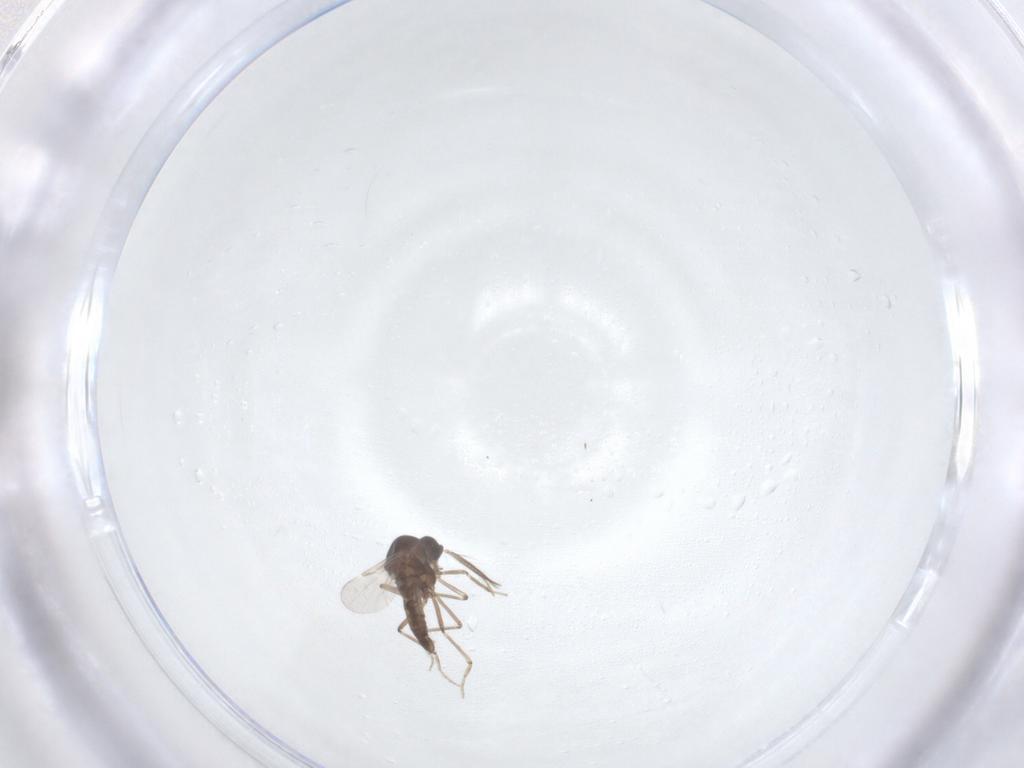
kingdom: Animalia
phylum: Arthropoda
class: Insecta
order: Diptera
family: Ceratopogonidae
